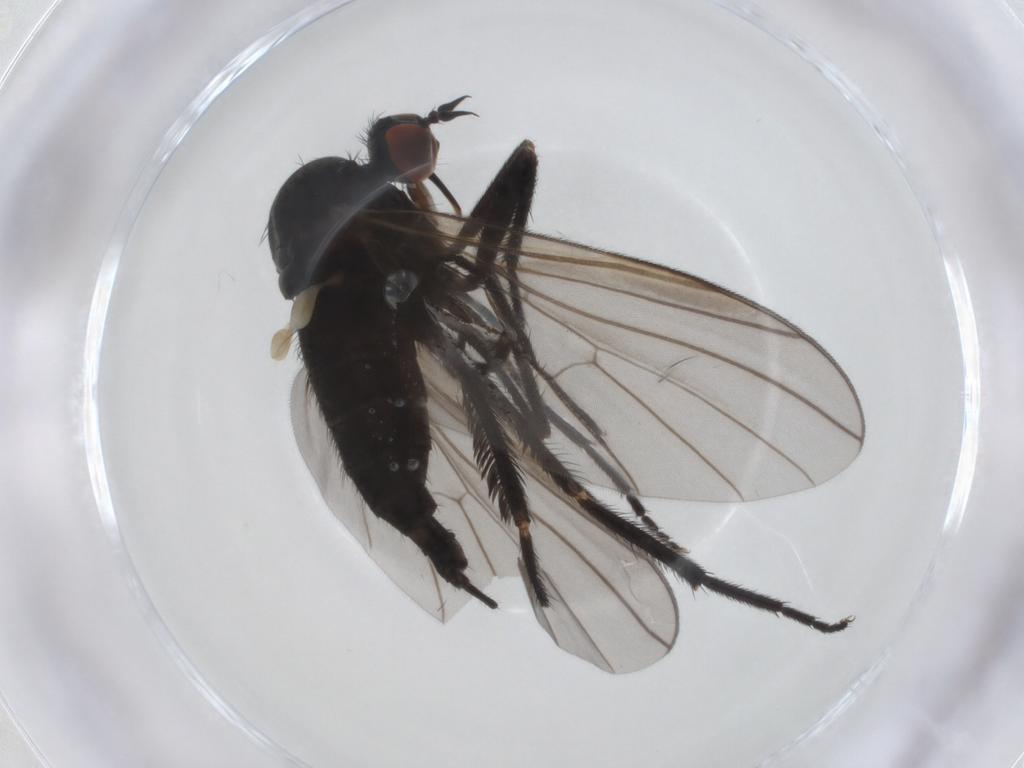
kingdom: Animalia
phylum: Arthropoda
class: Insecta
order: Diptera
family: Empididae
